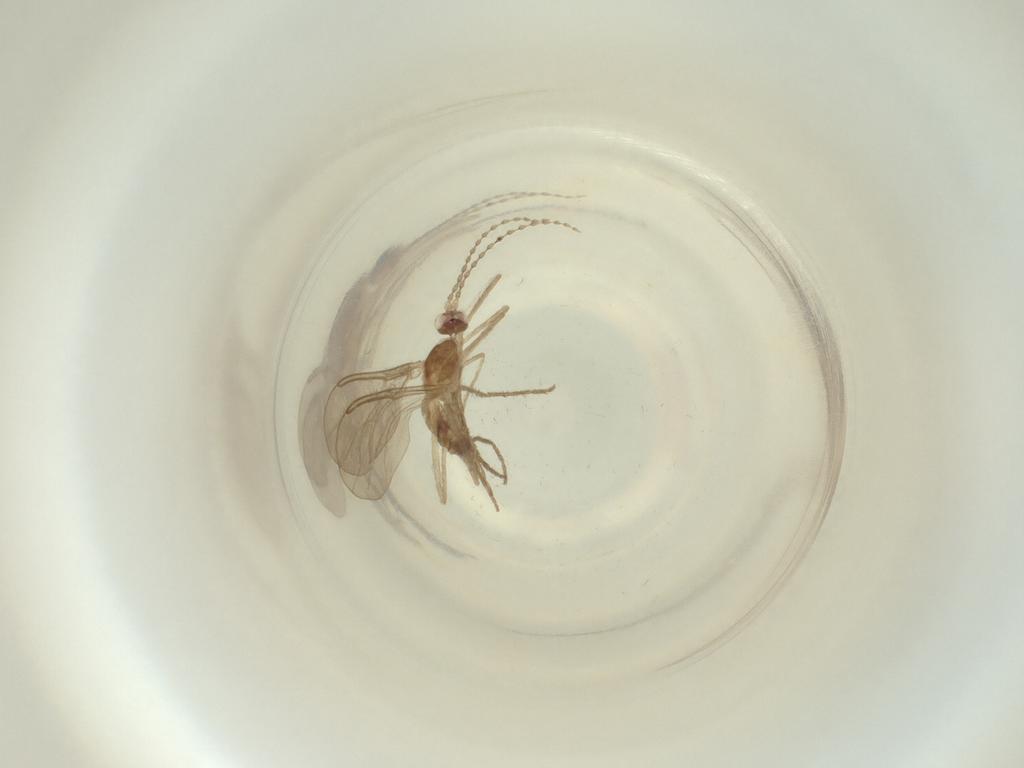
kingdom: Animalia
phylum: Arthropoda
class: Insecta
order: Diptera
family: Cecidomyiidae
